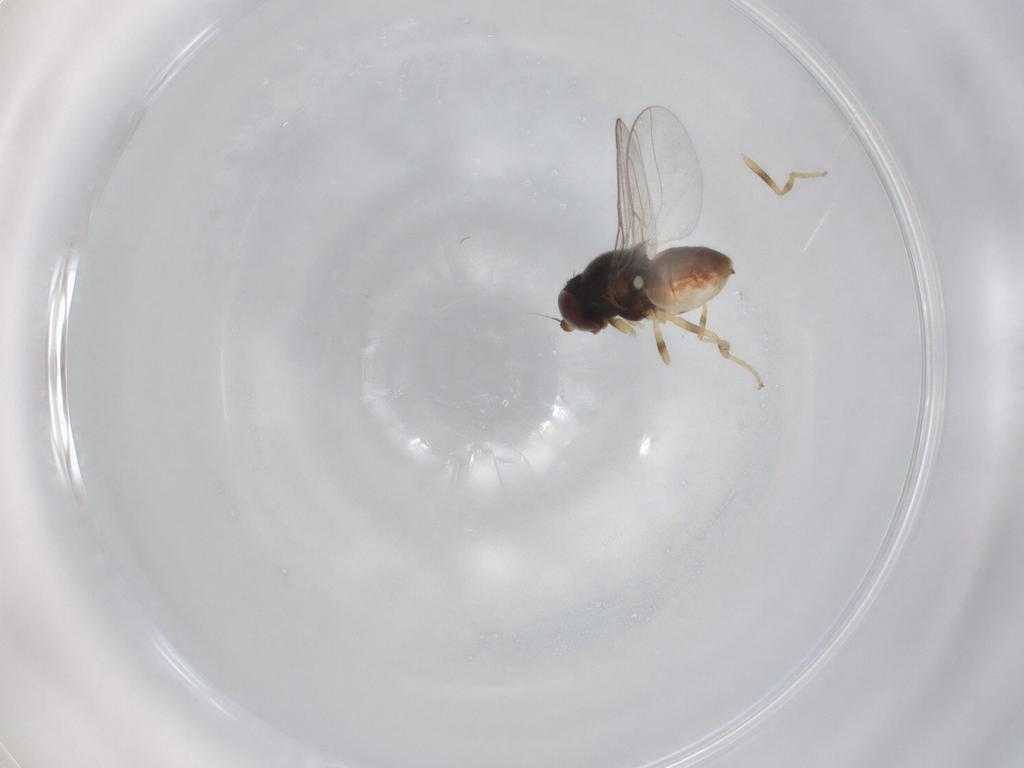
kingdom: Animalia
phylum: Arthropoda
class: Insecta
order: Diptera
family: Chloropidae
